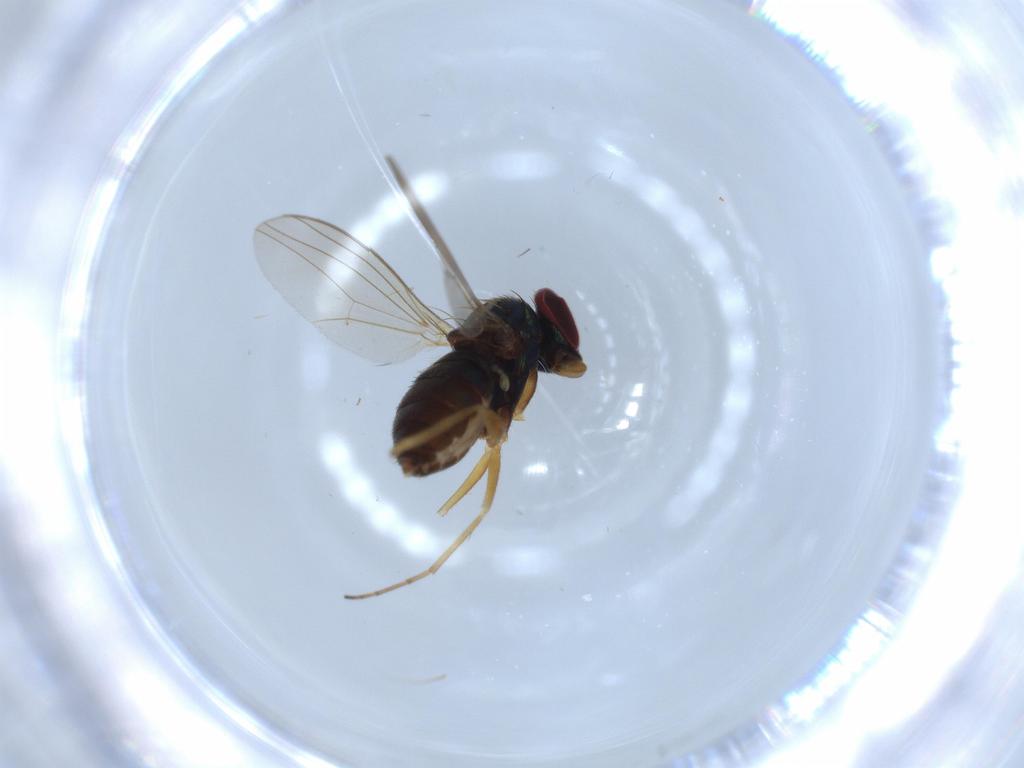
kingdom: Animalia
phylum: Arthropoda
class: Insecta
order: Diptera
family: Dolichopodidae
